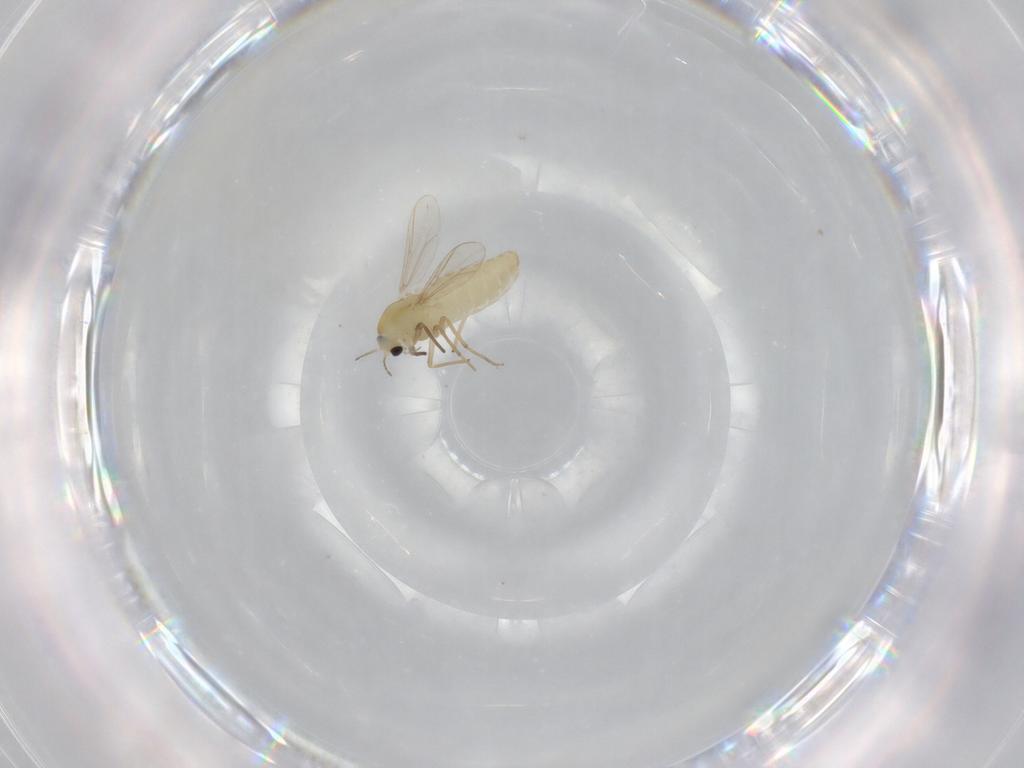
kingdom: Animalia
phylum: Arthropoda
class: Insecta
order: Diptera
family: Chironomidae
